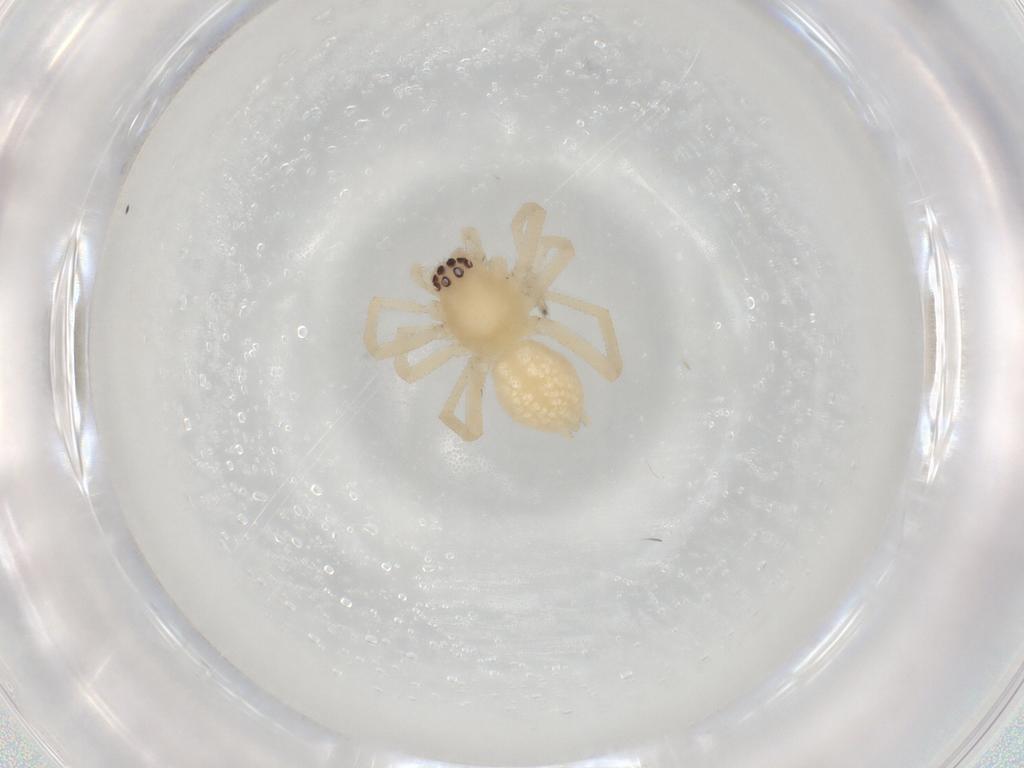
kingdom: Animalia
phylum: Arthropoda
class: Arachnida
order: Araneae
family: Cheiracanthiidae
